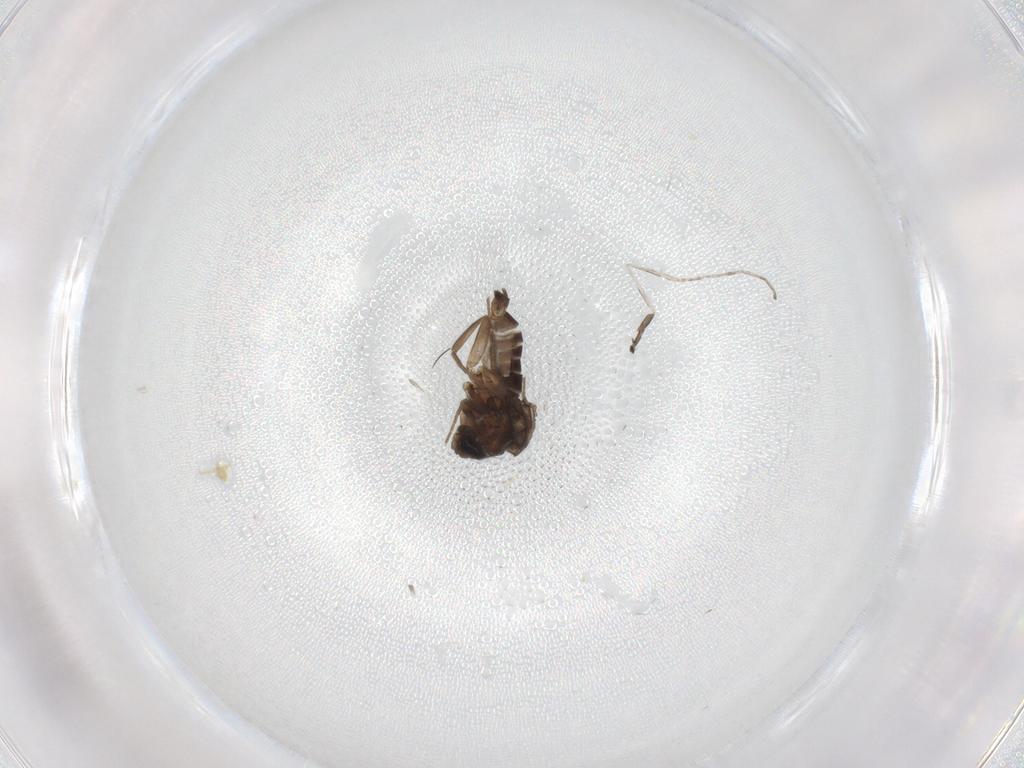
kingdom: Animalia
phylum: Arthropoda
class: Insecta
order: Diptera
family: Cecidomyiidae
